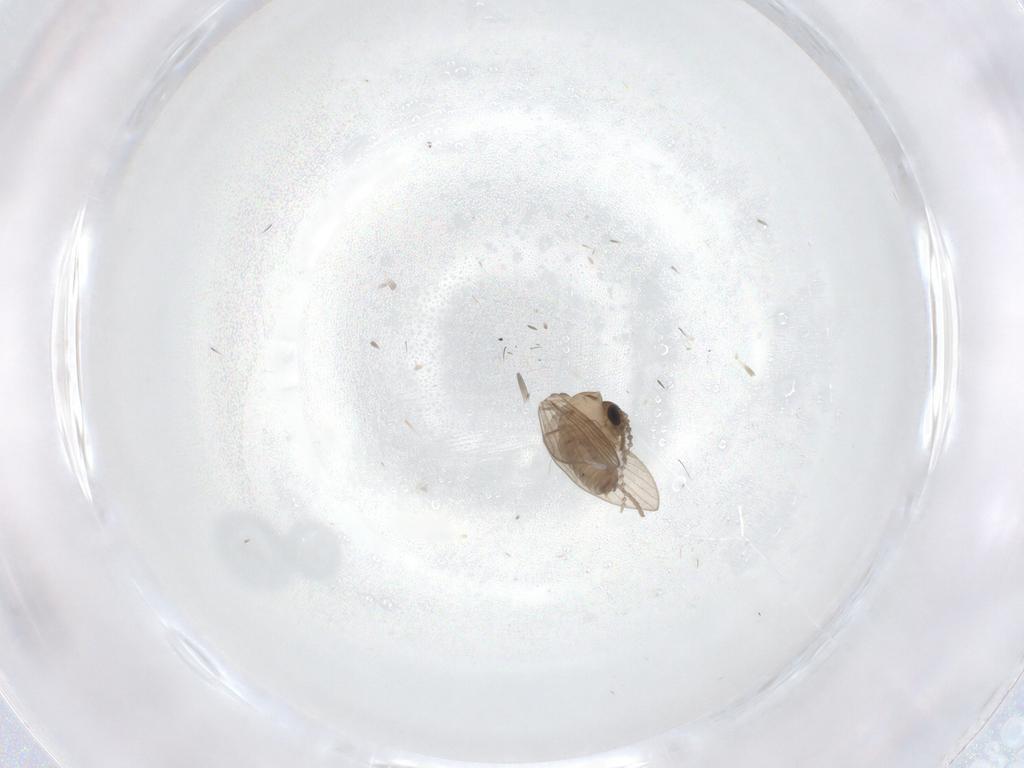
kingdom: Animalia
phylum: Arthropoda
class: Insecta
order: Diptera
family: Psychodidae
